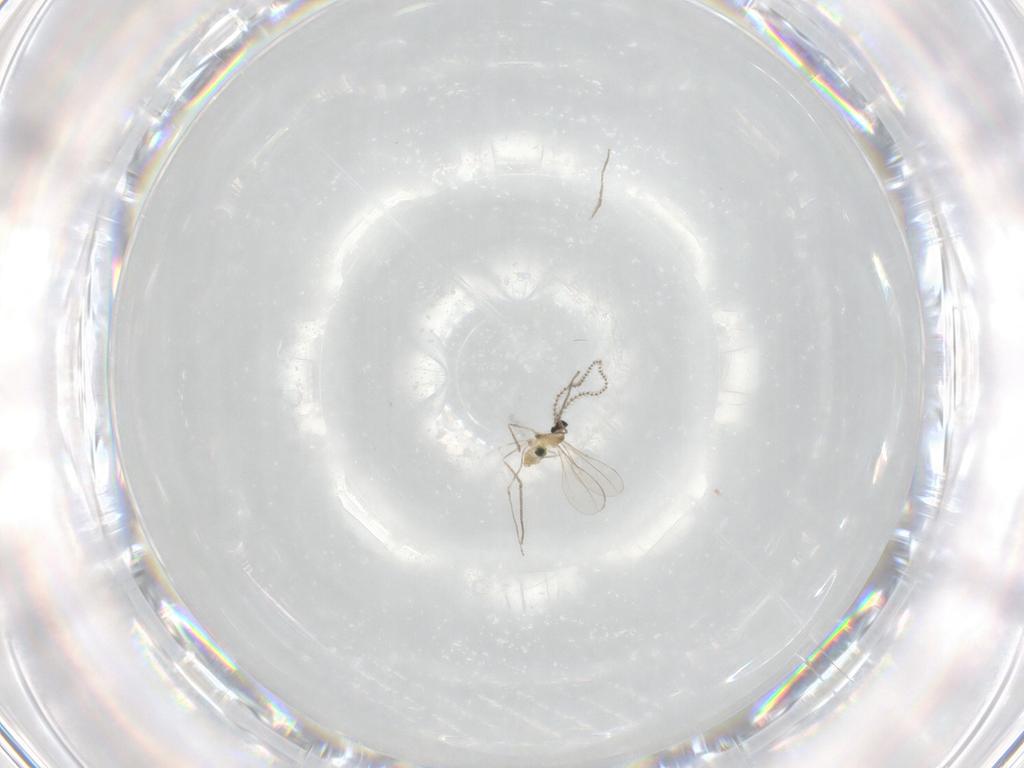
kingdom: Animalia
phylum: Arthropoda
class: Insecta
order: Diptera
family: Cecidomyiidae
